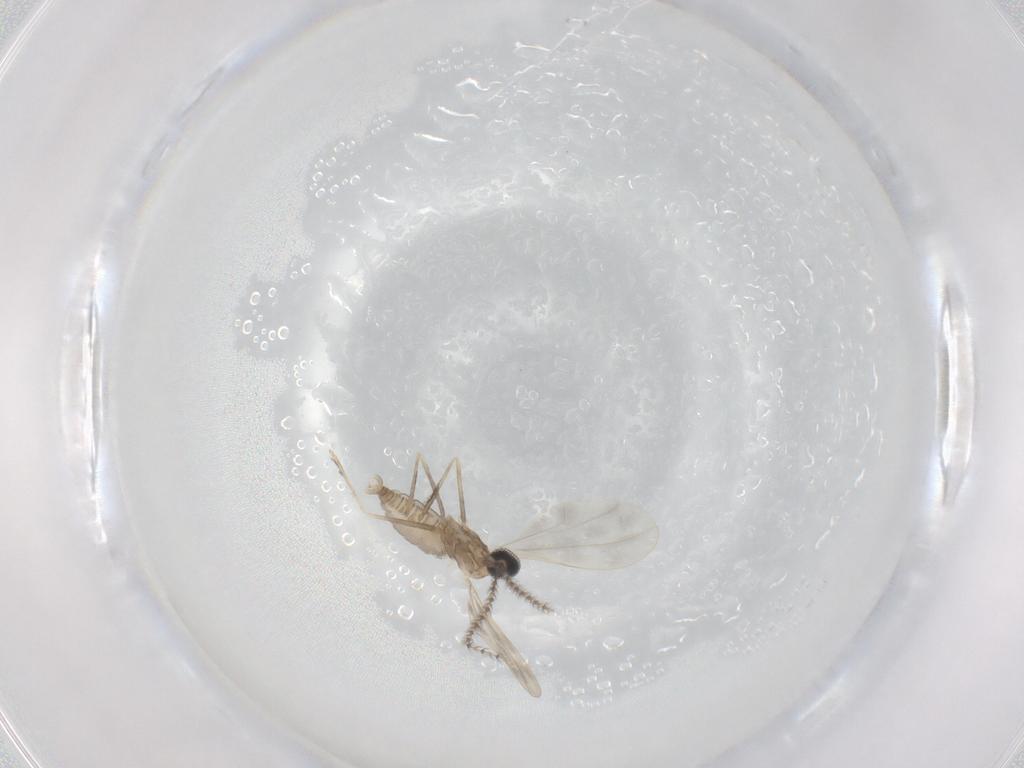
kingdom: Animalia
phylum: Arthropoda
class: Insecta
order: Diptera
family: Cecidomyiidae
